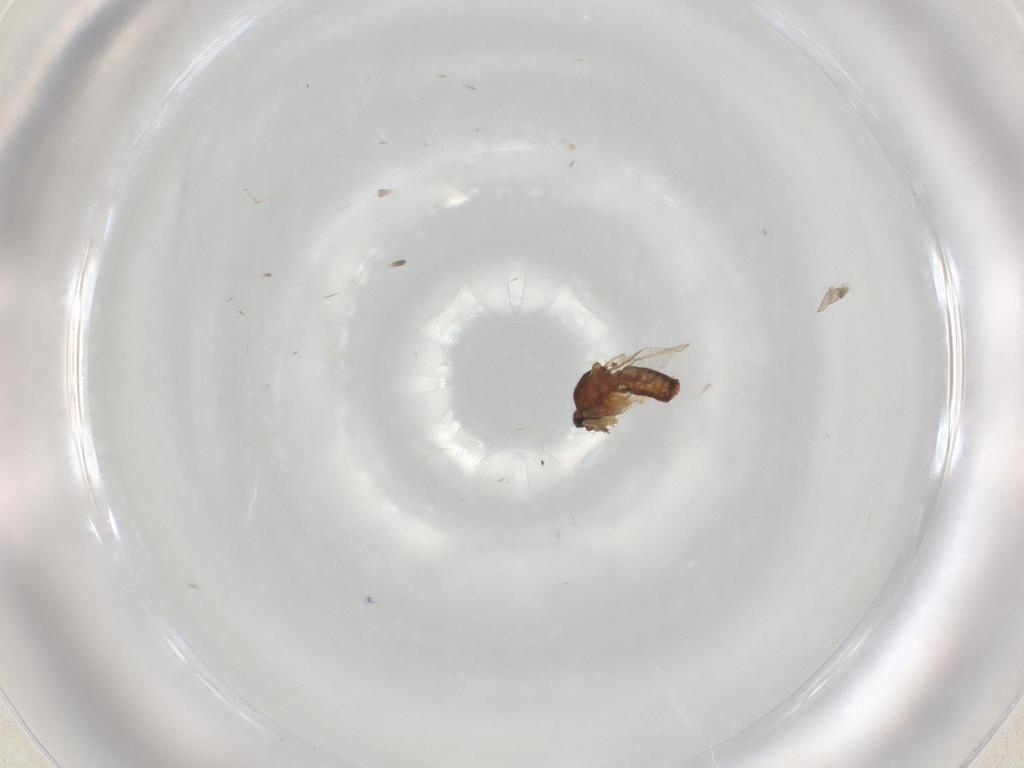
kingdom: Animalia
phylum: Arthropoda
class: Insecta
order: Diptera
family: Ceratopogonidae
